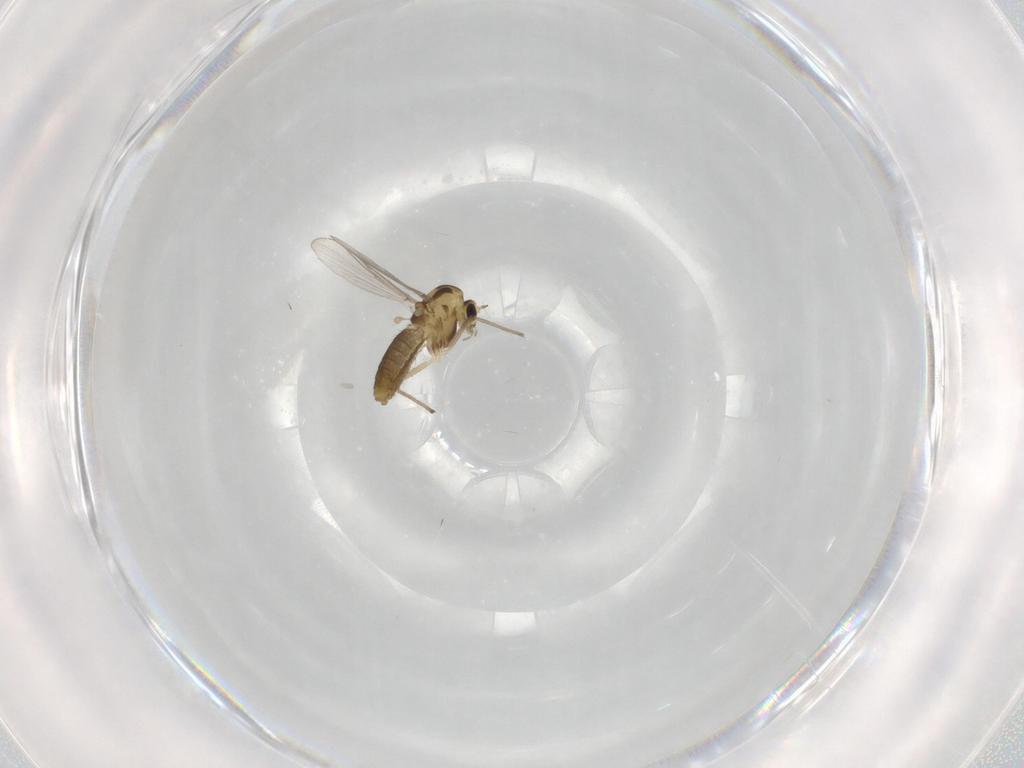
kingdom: Animalia
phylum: Arthropoda
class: Insecta
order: Diptera
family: Chironomidae
